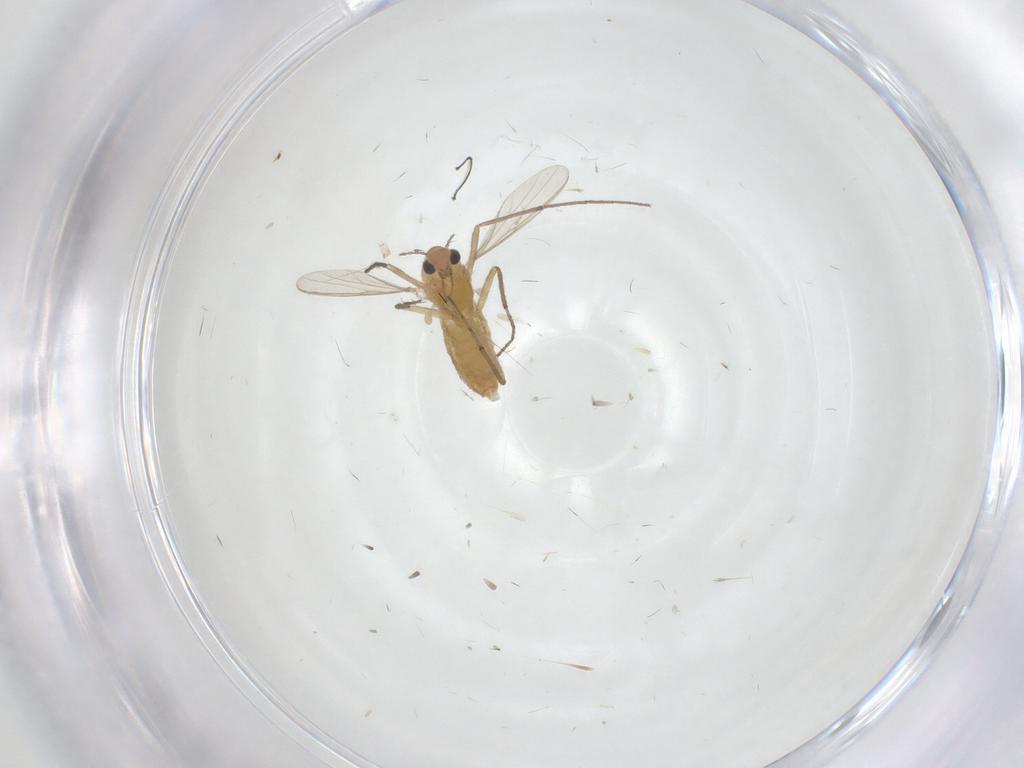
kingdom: Animalia
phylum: Arthropoda
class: Insecta
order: Diptera
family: Chironomidae
